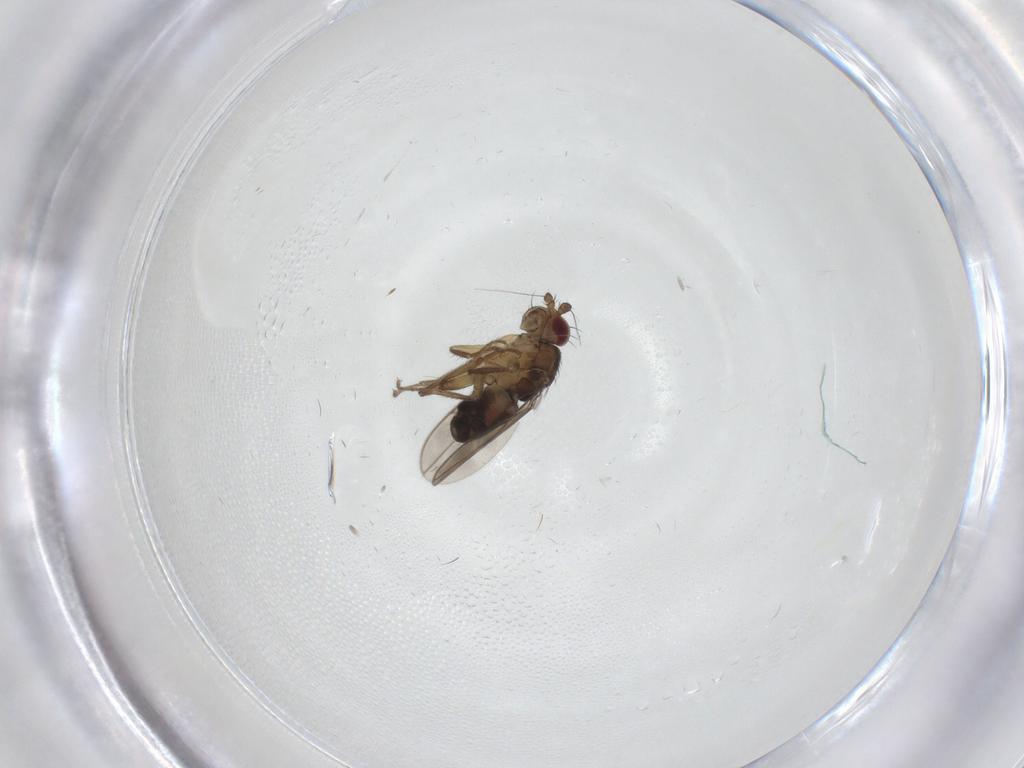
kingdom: Animalia
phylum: Arthropoda
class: Insecta
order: Diptera
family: Sphaeroceridae
